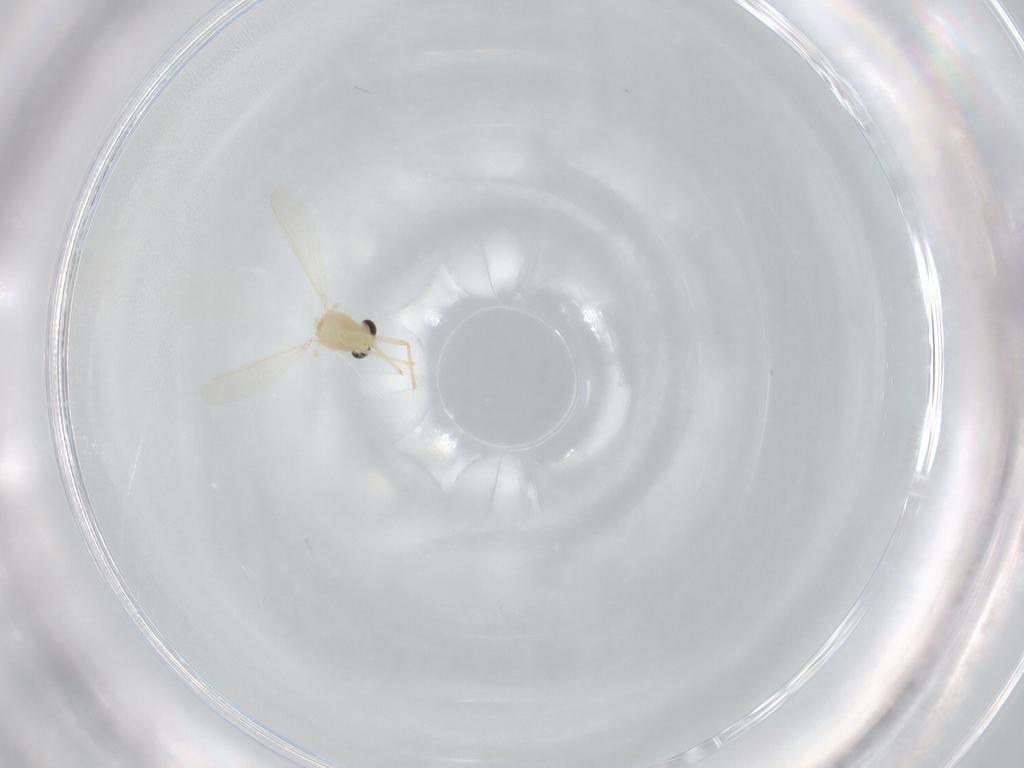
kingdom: Animalia
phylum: Arthropoda
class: Insecta
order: Diptera
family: Chironomidae
